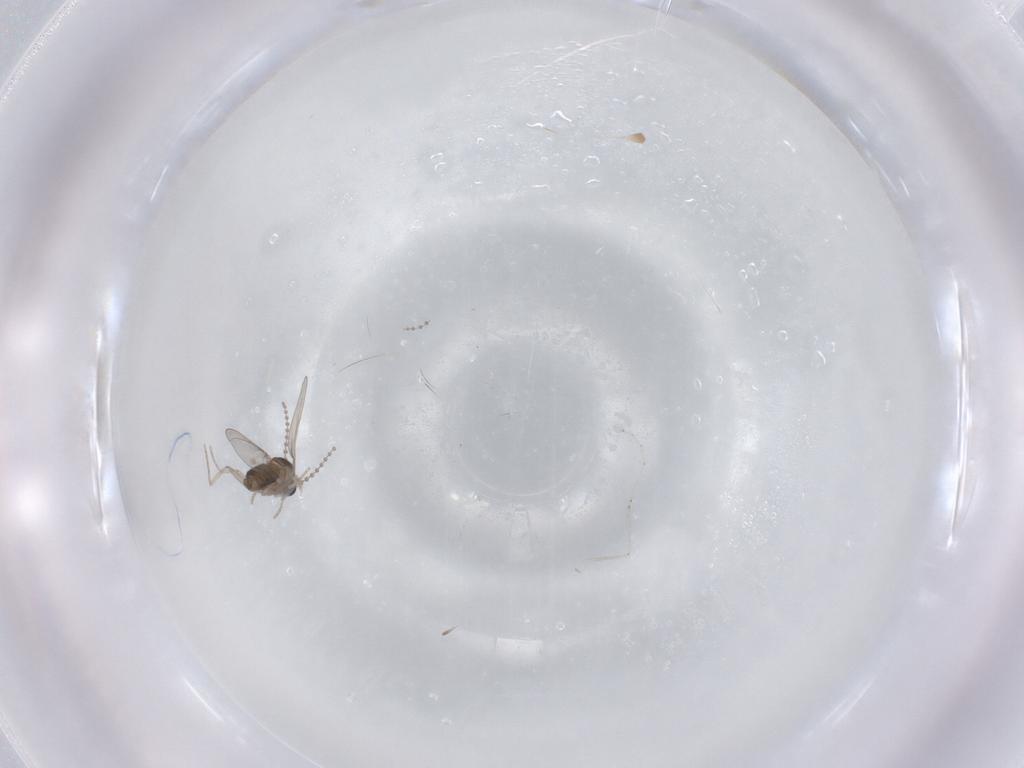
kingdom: Animalia
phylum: Arthropoda
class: Insecta
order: Diptera
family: Cecidomyiidae
